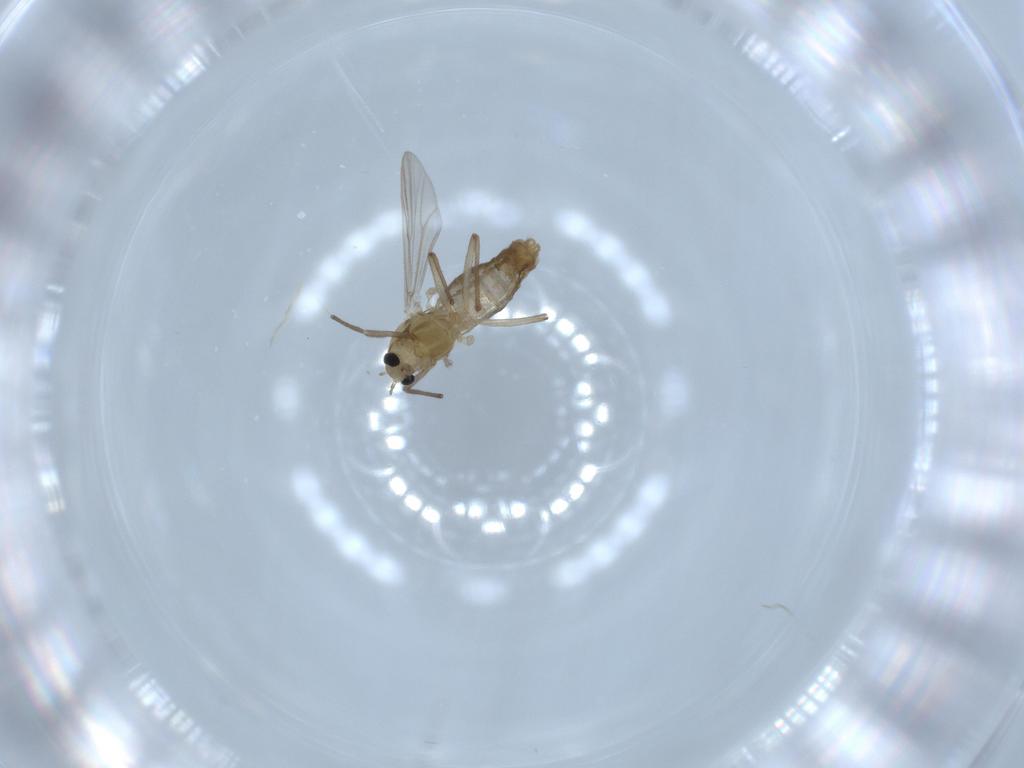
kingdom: Animalia
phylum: Arthropoda
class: Insecta
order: Diptera
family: Chironomidae
